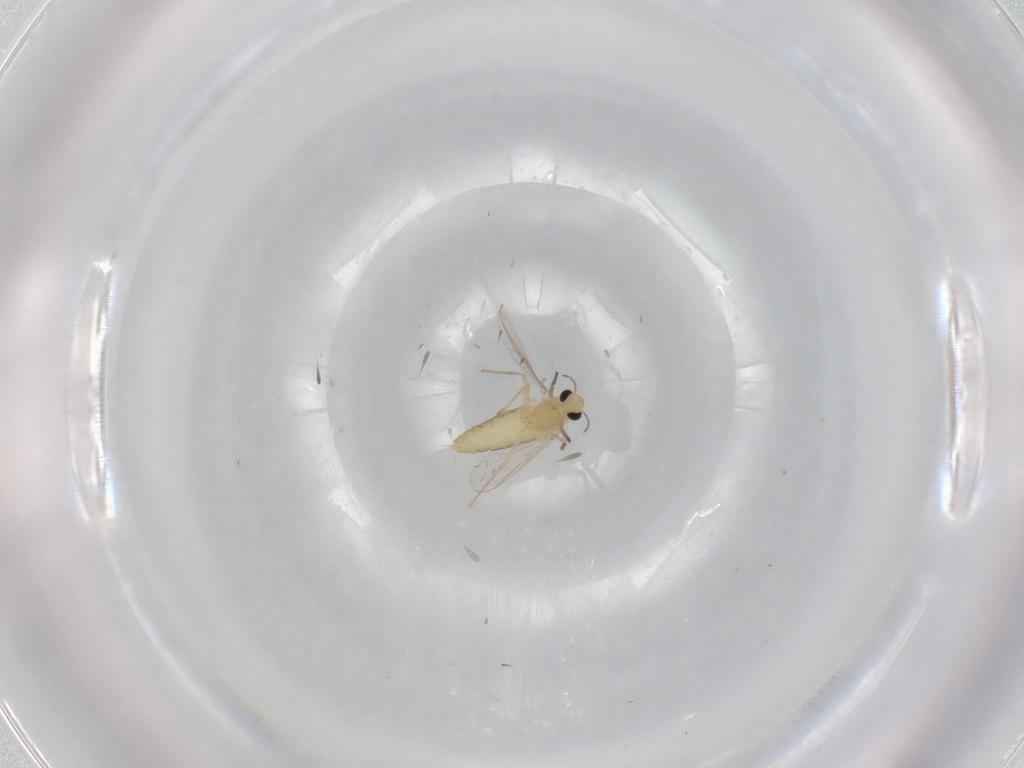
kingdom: Animalia
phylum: Arthropoda
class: Insecta
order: Diptera
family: Chironomidae
